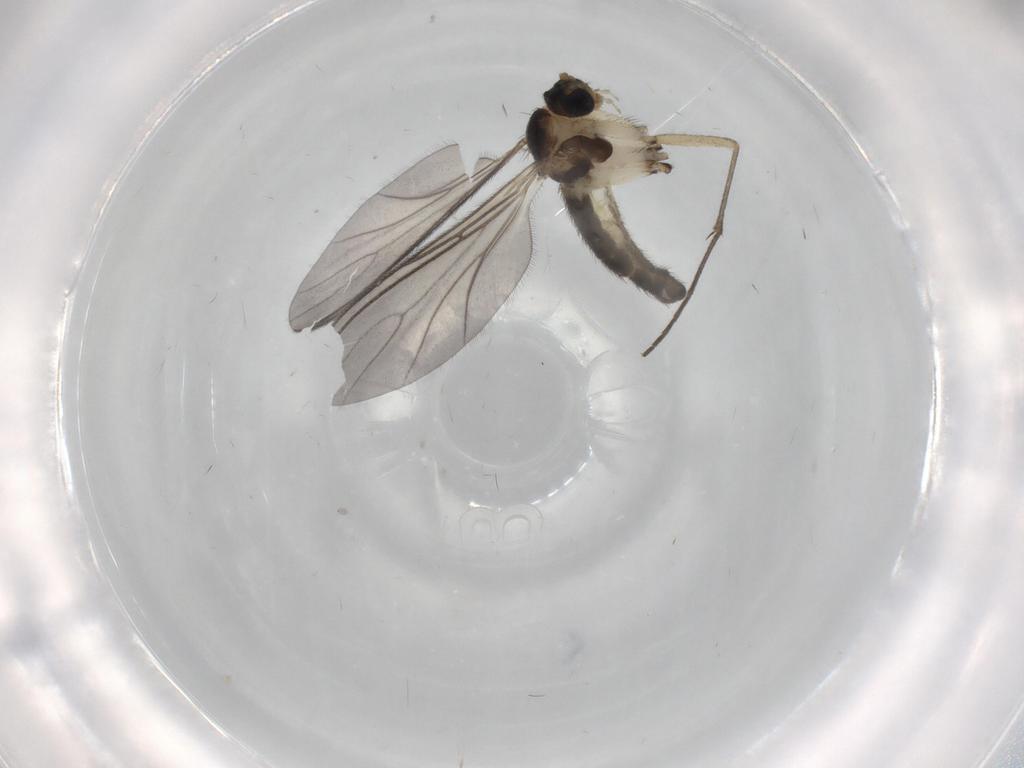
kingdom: Animalia
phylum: Arthropoda
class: Insecta
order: Diptera
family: Sciaridae
